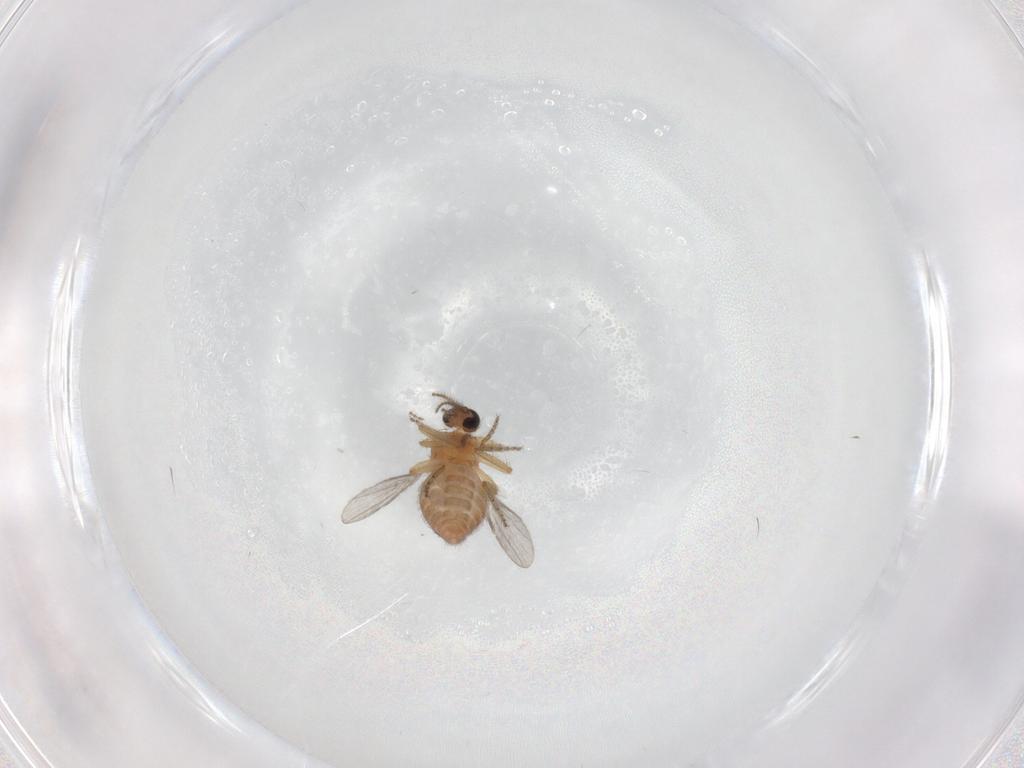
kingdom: Animalia
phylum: Arthropoda
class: Insecta
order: Diptera
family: Ceratopogonidae
